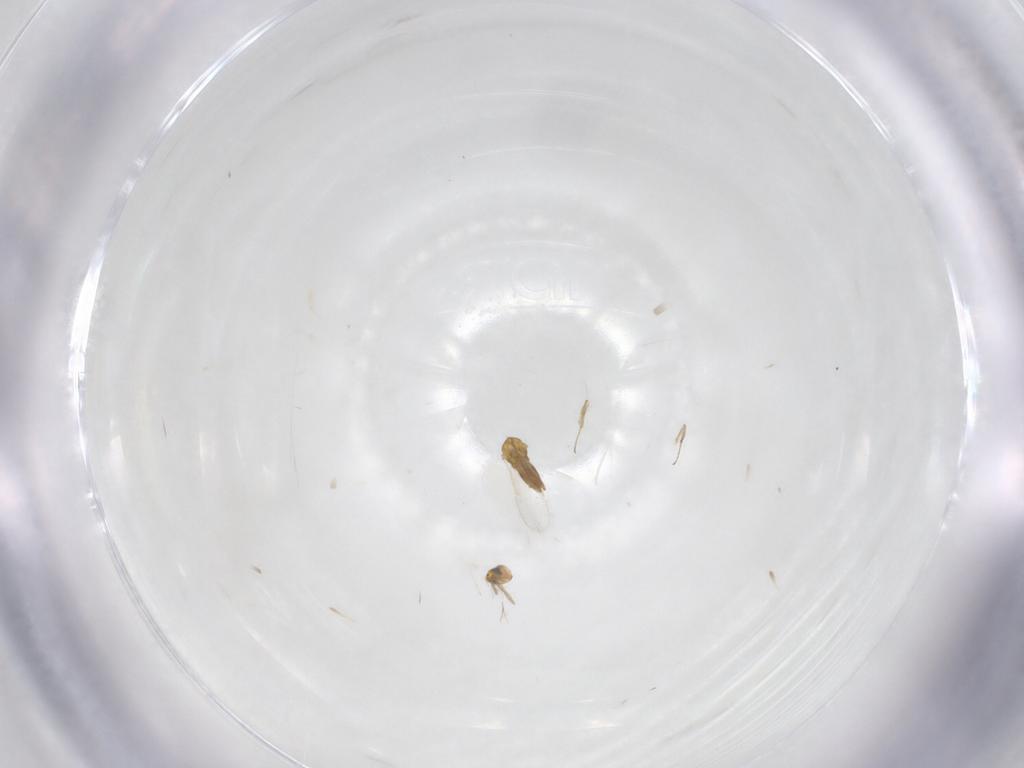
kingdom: Animalia
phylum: Arthropoda
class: Insecta
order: Hymenoptera
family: Aphelinidae
